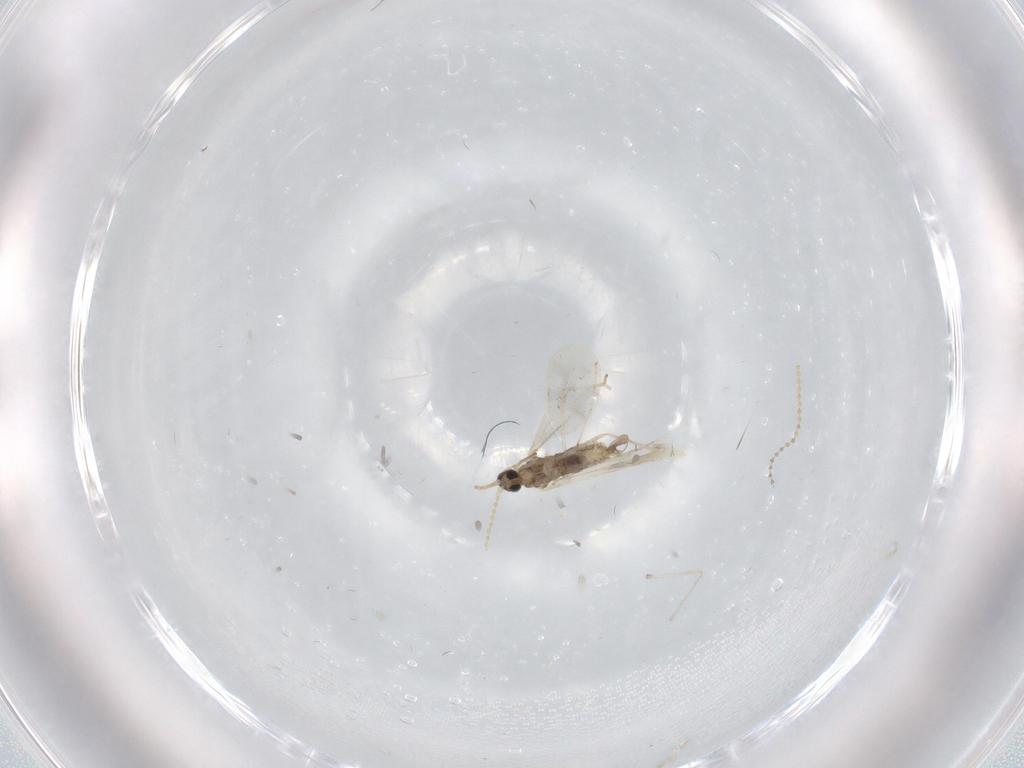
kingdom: Animalia
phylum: Arthropoda
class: Insecta
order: Diptera
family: Cecidomyiidae
